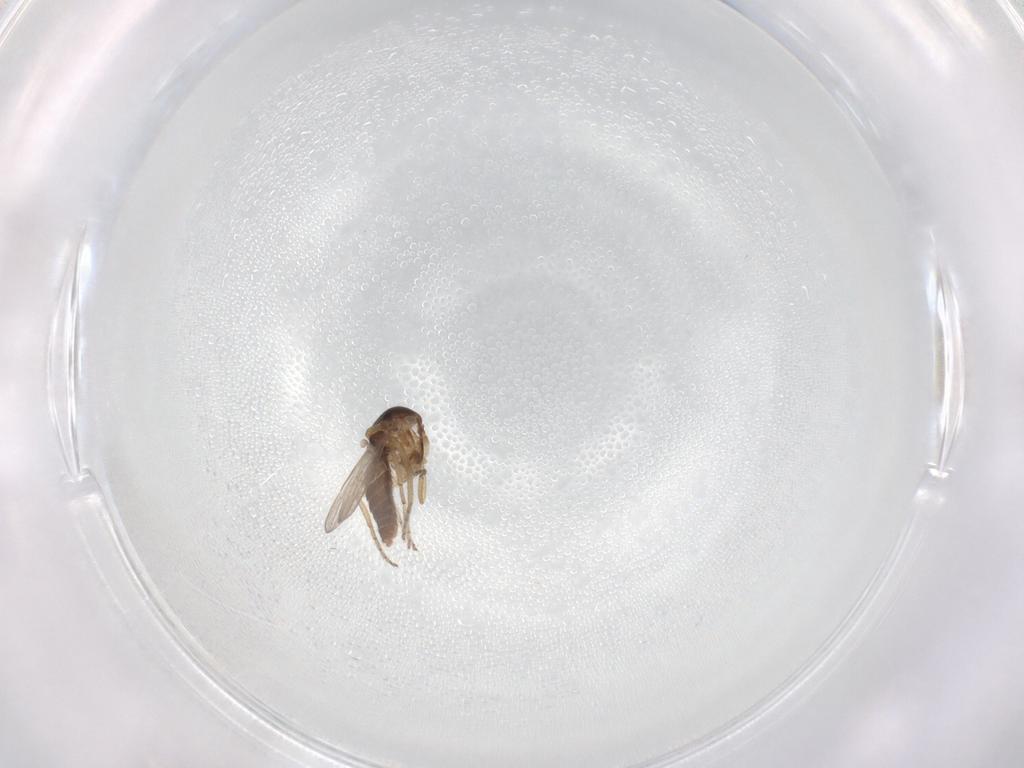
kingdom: Animalia
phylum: Arthropoda
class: Insecta
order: Diptera
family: Ceratopogonidae
